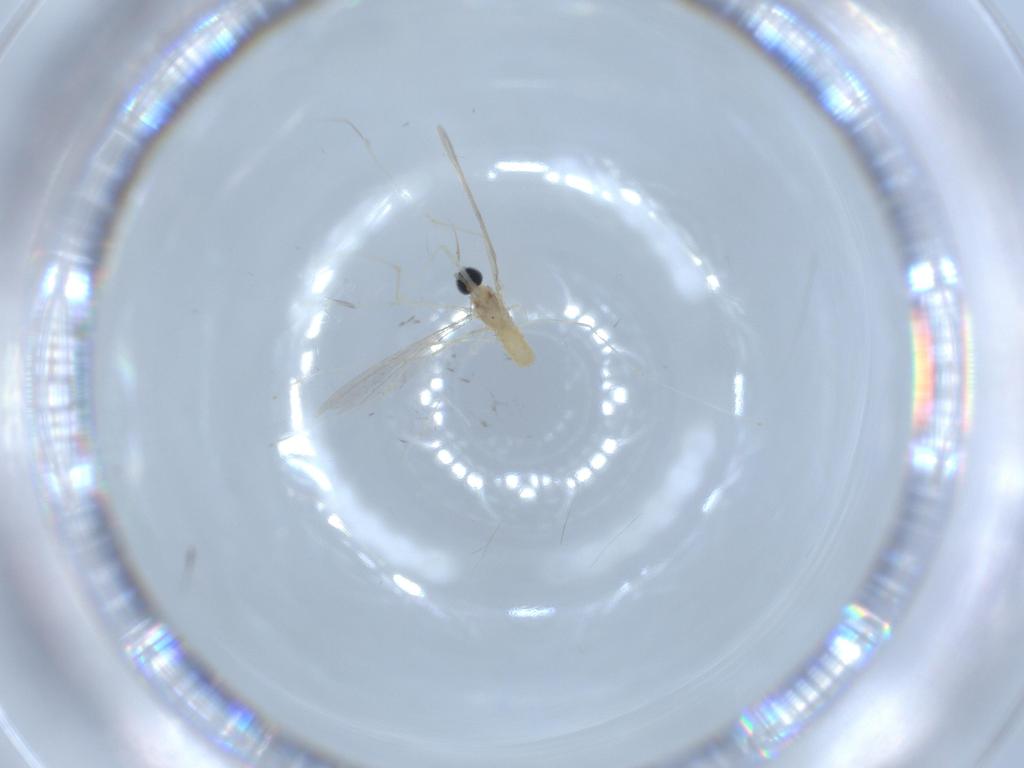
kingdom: Animalia
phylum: Arthropoda
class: Insecta
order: Diptera
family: Cecidomyiidae
